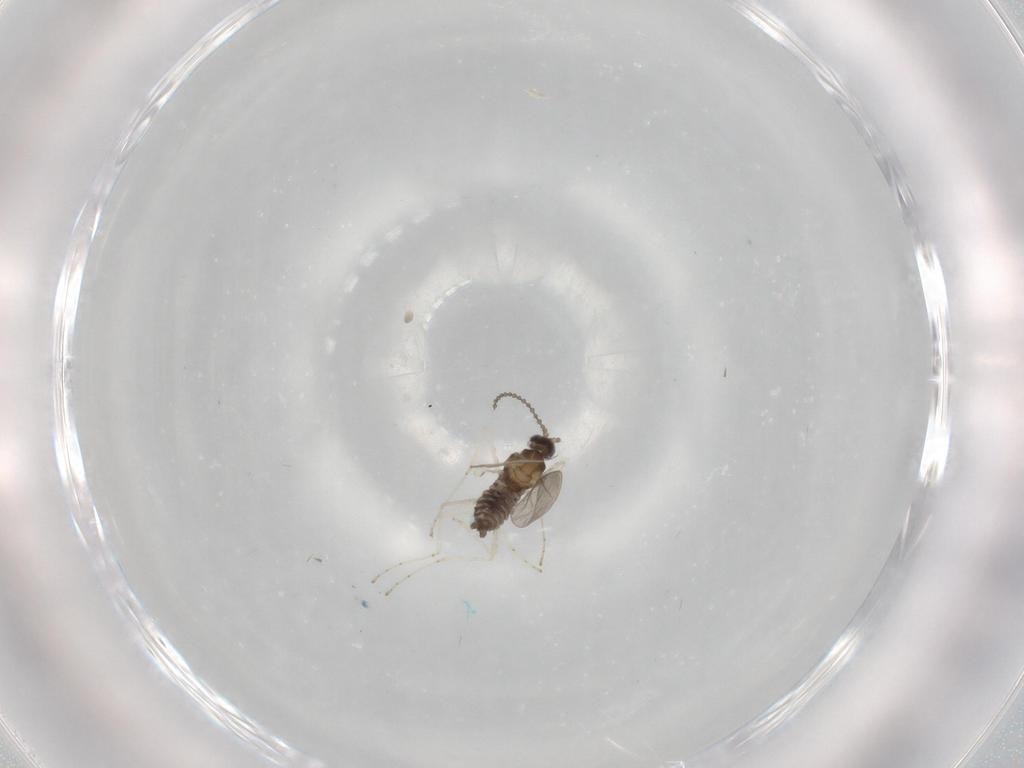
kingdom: Animalia
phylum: Arthropoda
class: Insecta
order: Diptera
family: Cecidomyiidae
